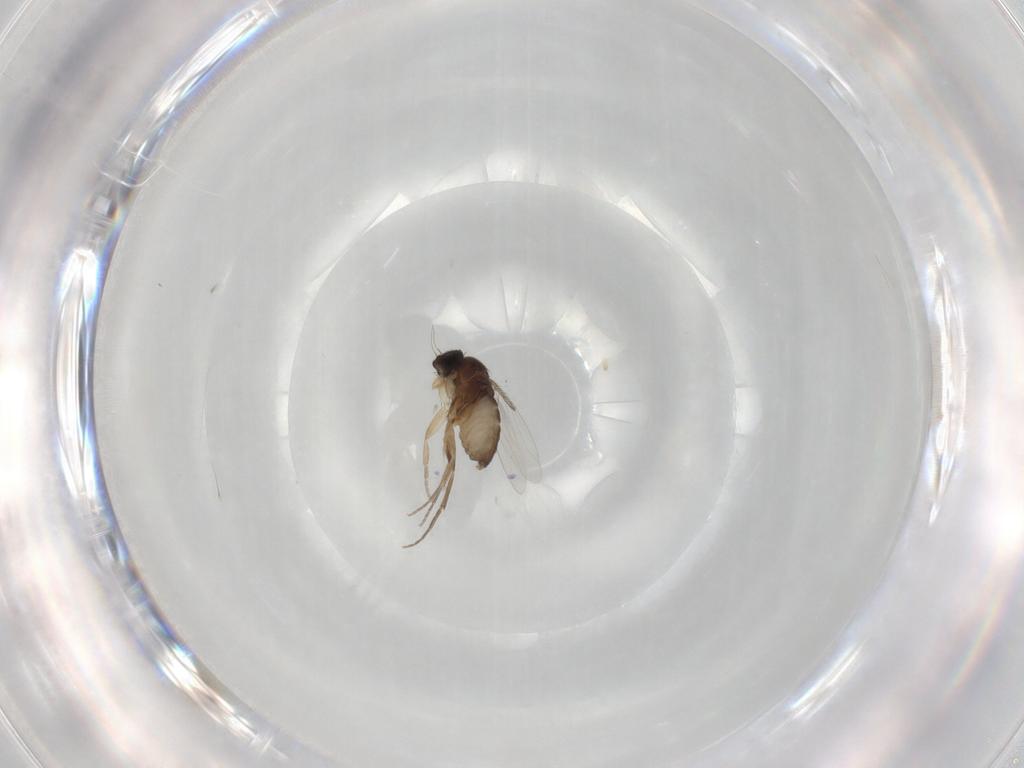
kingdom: Animalia
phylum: Arthropoda
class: Insecta
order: Diptera
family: Phoridae
